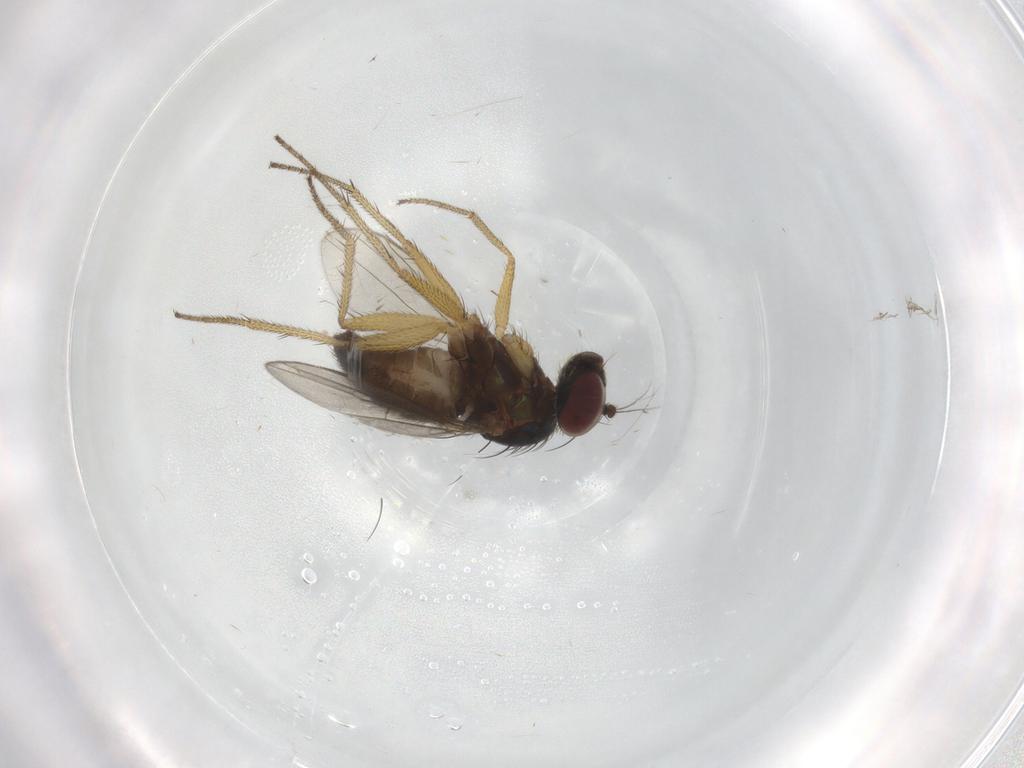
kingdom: Animalia
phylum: Arthropoda
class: Insecta
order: Diptera
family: Dolichopodidae
